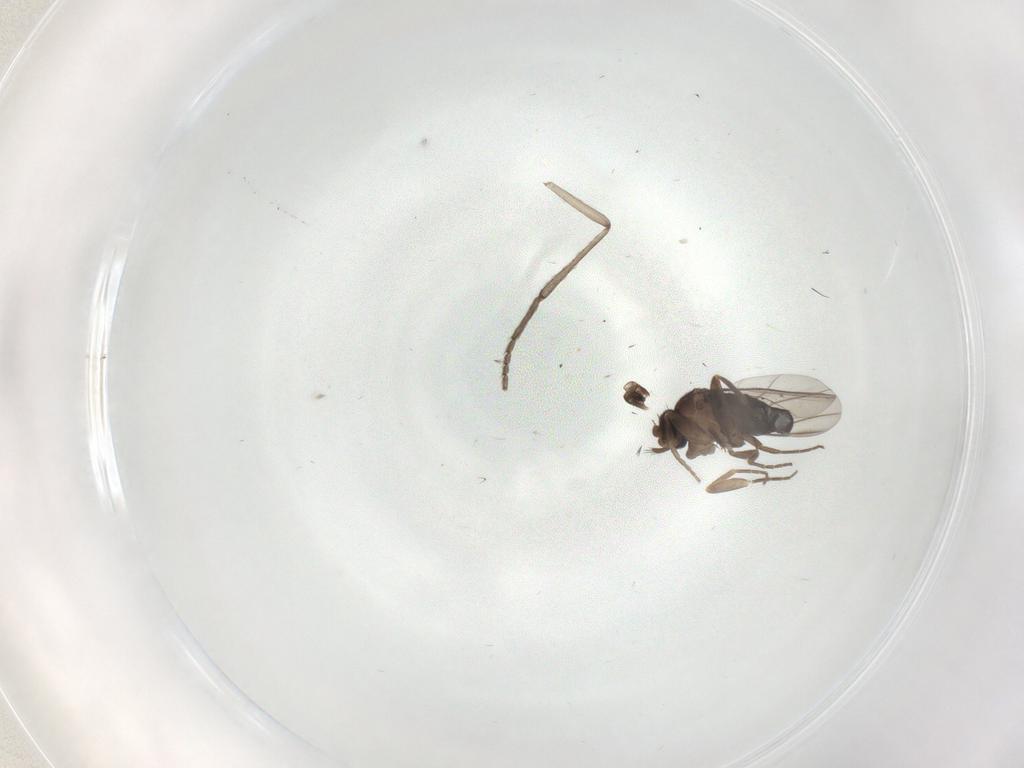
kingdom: Animalia
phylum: Arthropoda
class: Insecta
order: Diptera
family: Phoridae
